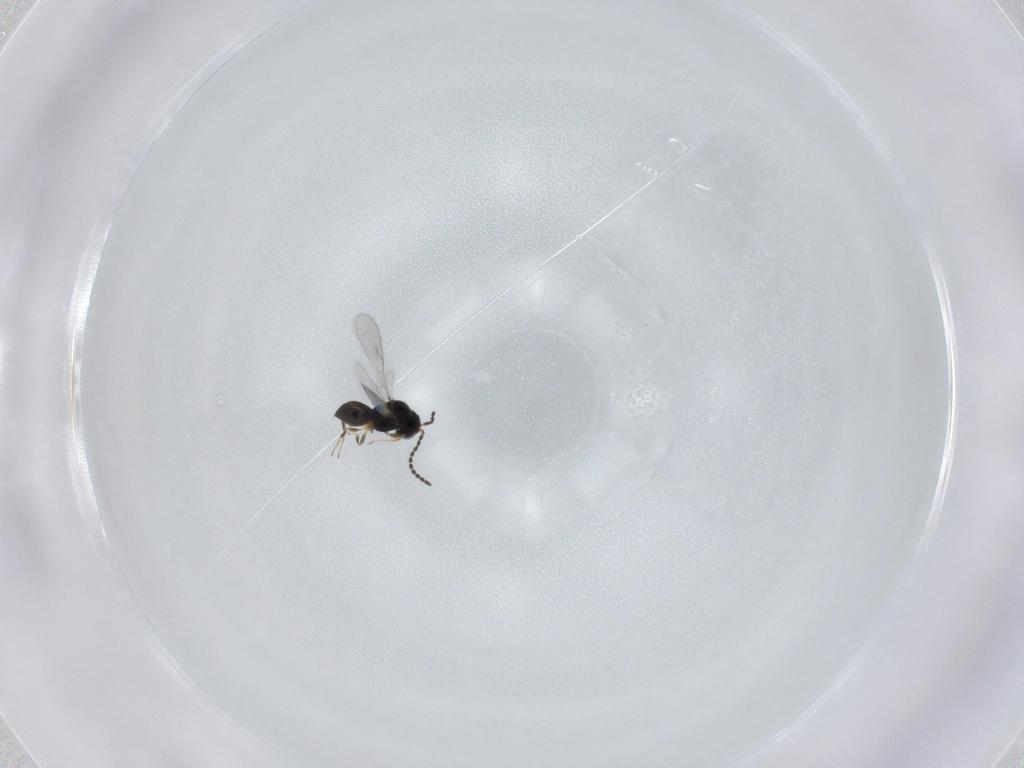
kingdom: Animalia
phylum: Arthropoda
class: Insecta
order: Hymenoptera
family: Scelionidae
